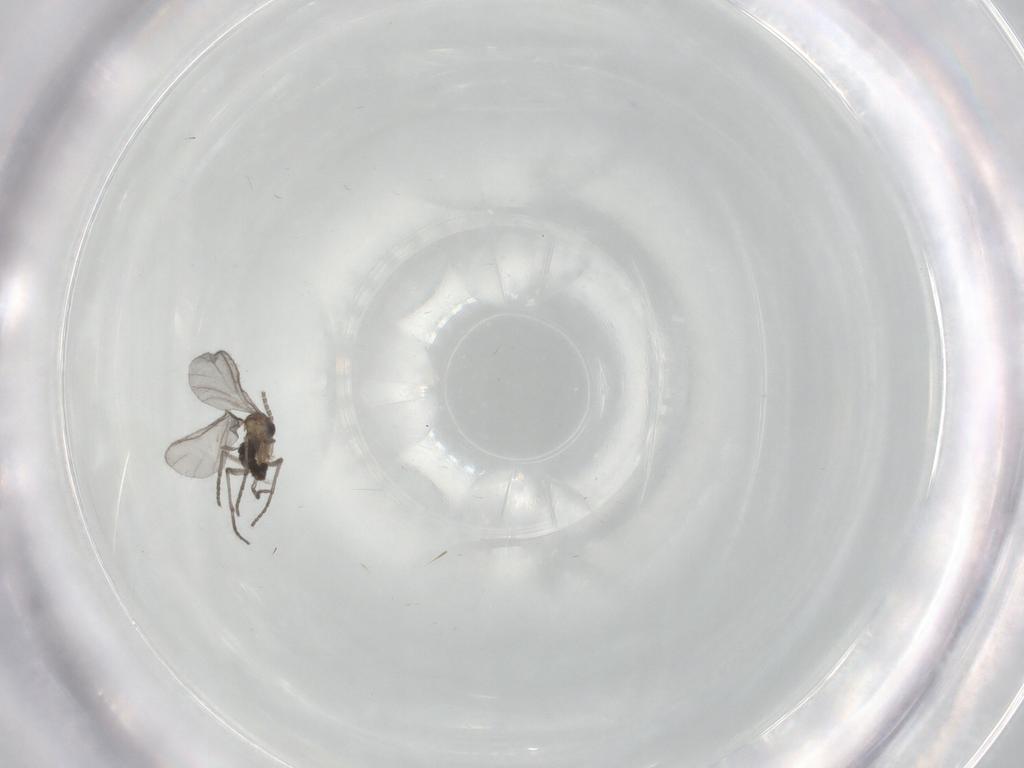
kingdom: Animalia
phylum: Arthropoda
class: Insecta
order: Diptera
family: Sciaridae
